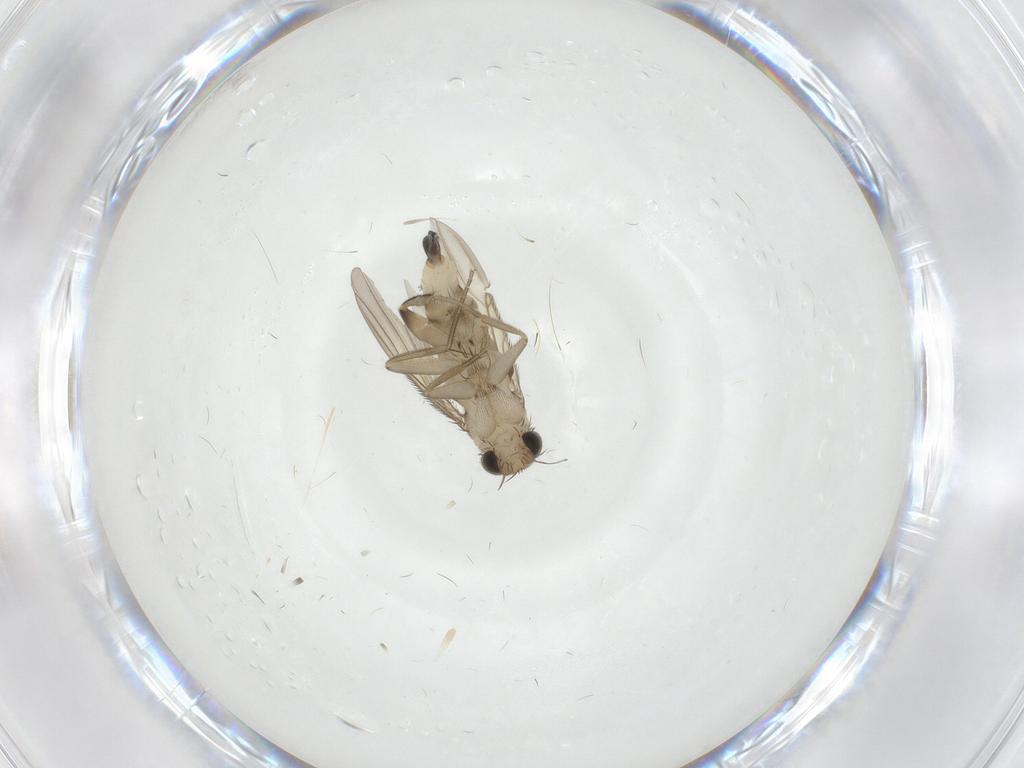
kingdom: Animalia
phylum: Arthropoda
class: Insecta
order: Diptera
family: Phoridae
